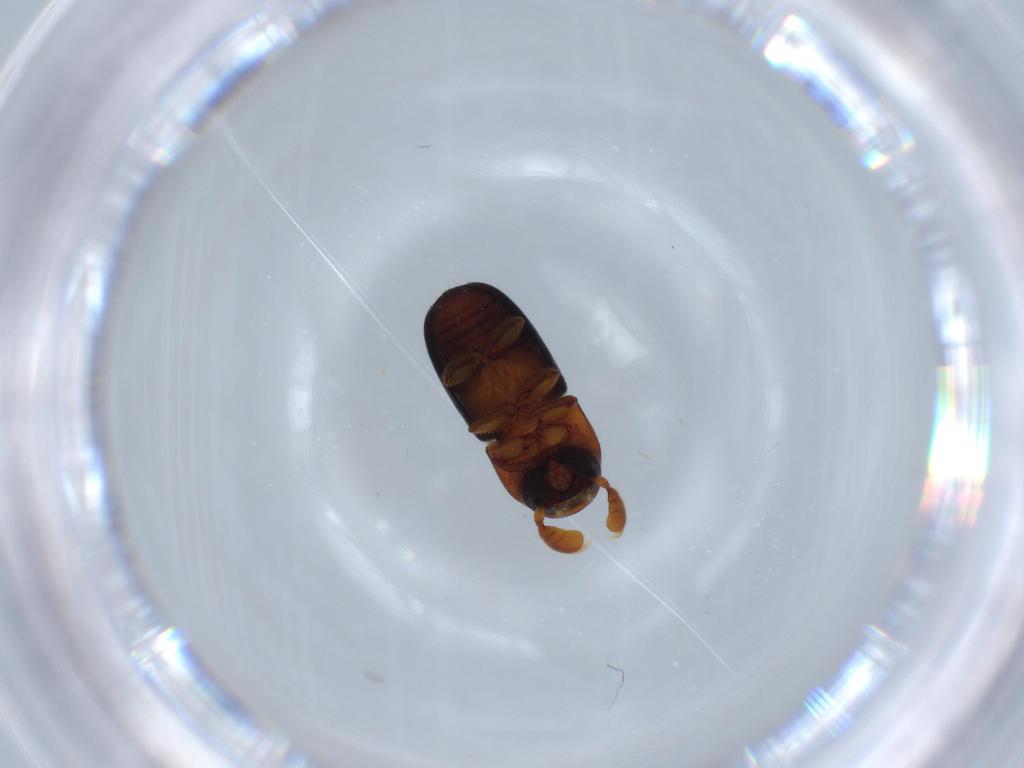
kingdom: Animalia
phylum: Arthropoda
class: Insecta
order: Coleoptera
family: Curculionidae
